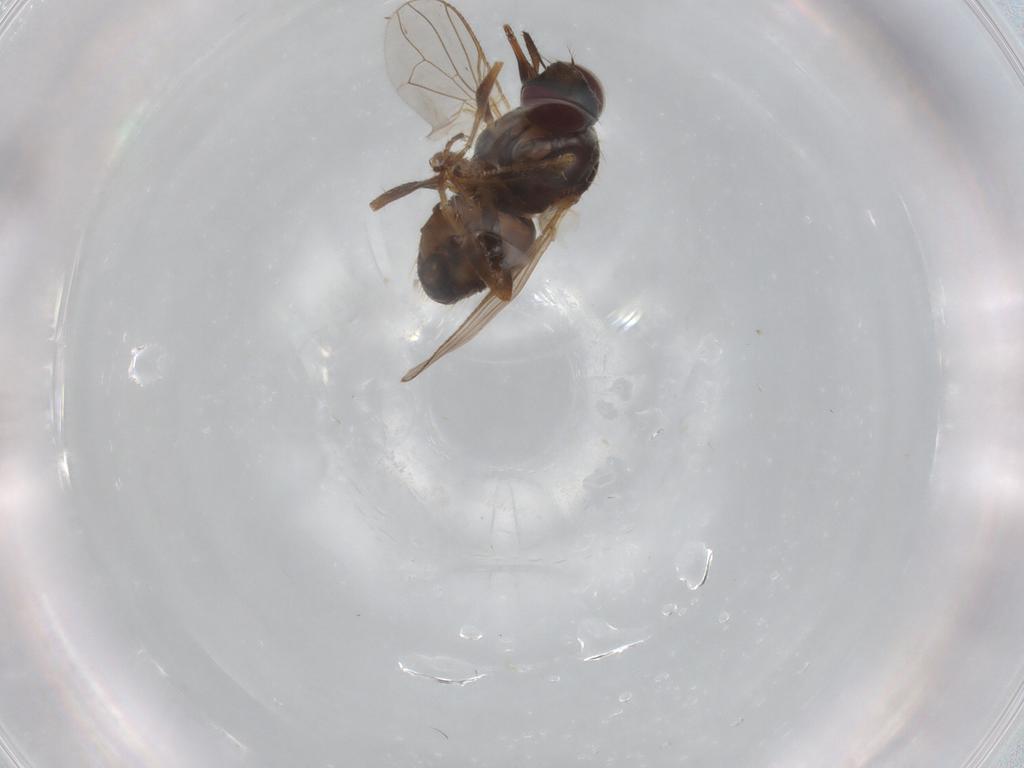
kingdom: Animalia
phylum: Arthropoda
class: Insecta
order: Diptera
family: Muscidae
